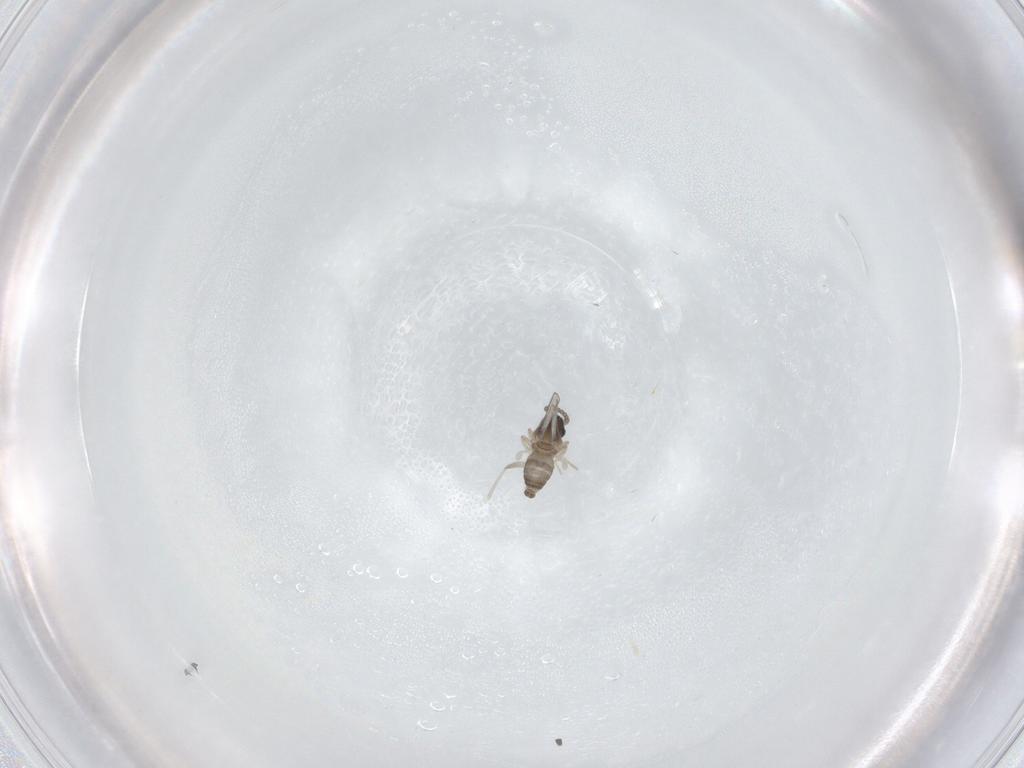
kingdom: Animalia
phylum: Arthropoda
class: Insecta
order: Diptera
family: Cecidomyiidae
